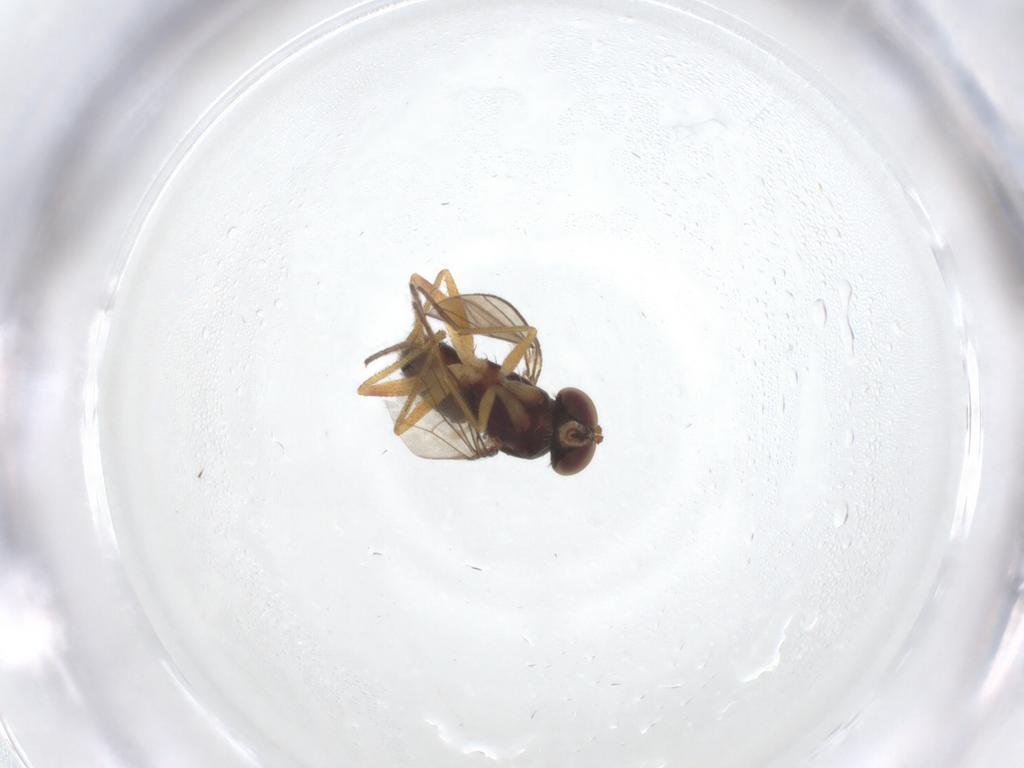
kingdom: Animalia
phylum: Arthropoda
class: Insecta
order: Diptera
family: Dolichopodidae
